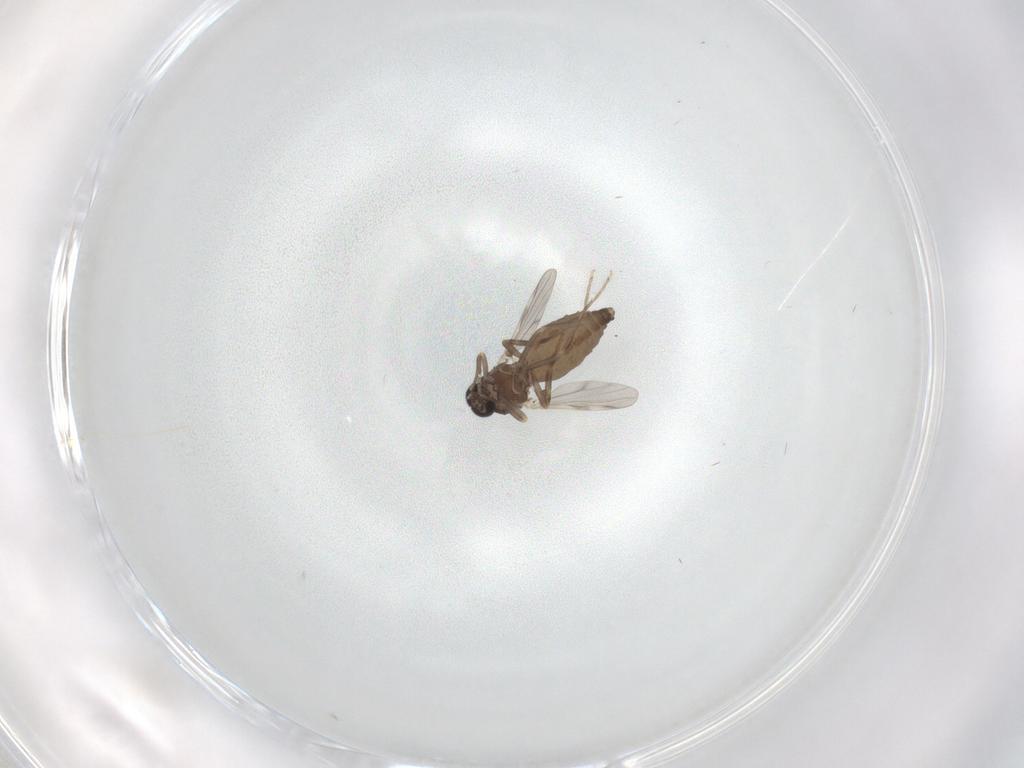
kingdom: Animalia
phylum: Arthropoda
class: Insecta
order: Diptera
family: Ceratopogonidae
